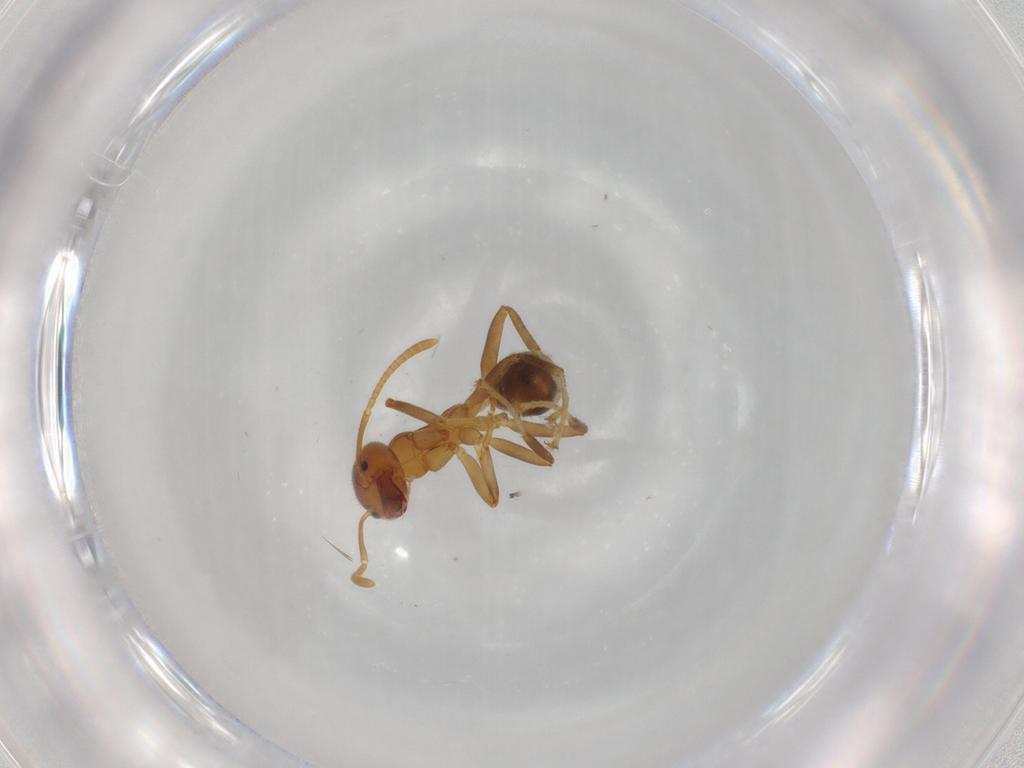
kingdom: Animalia
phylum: Arthropoda
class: Insecta
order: Hymenoptera
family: Formicidae
